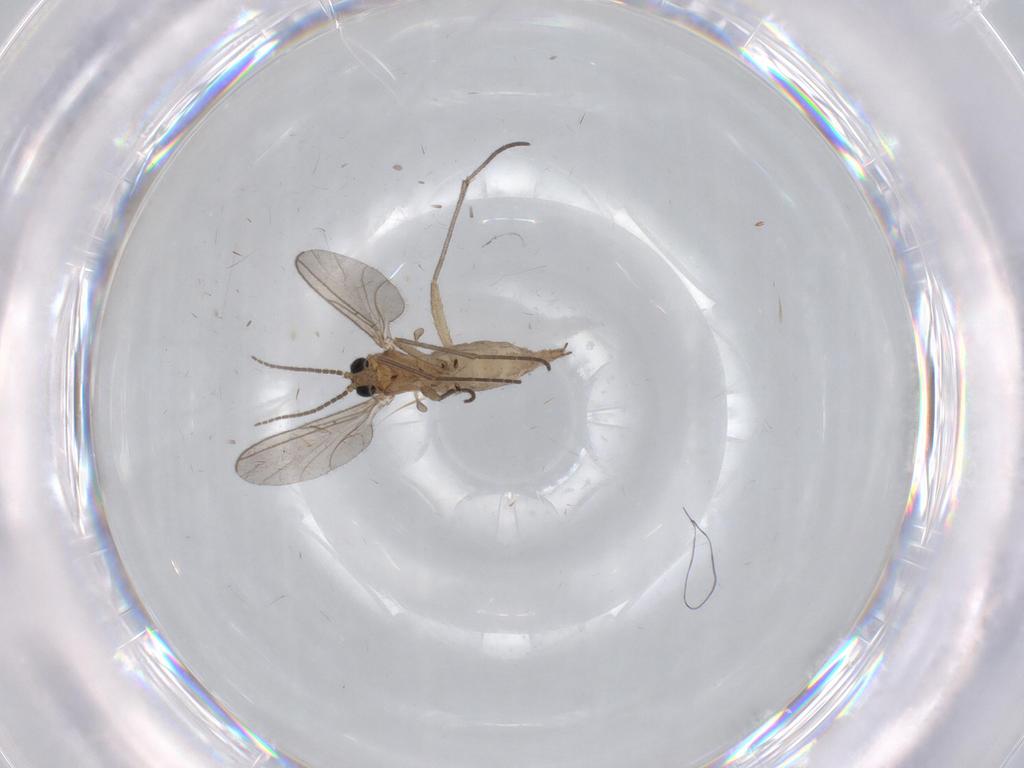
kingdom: Animalia
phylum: Arthropoda
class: Insecta
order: Diptera
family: Sciaridae
